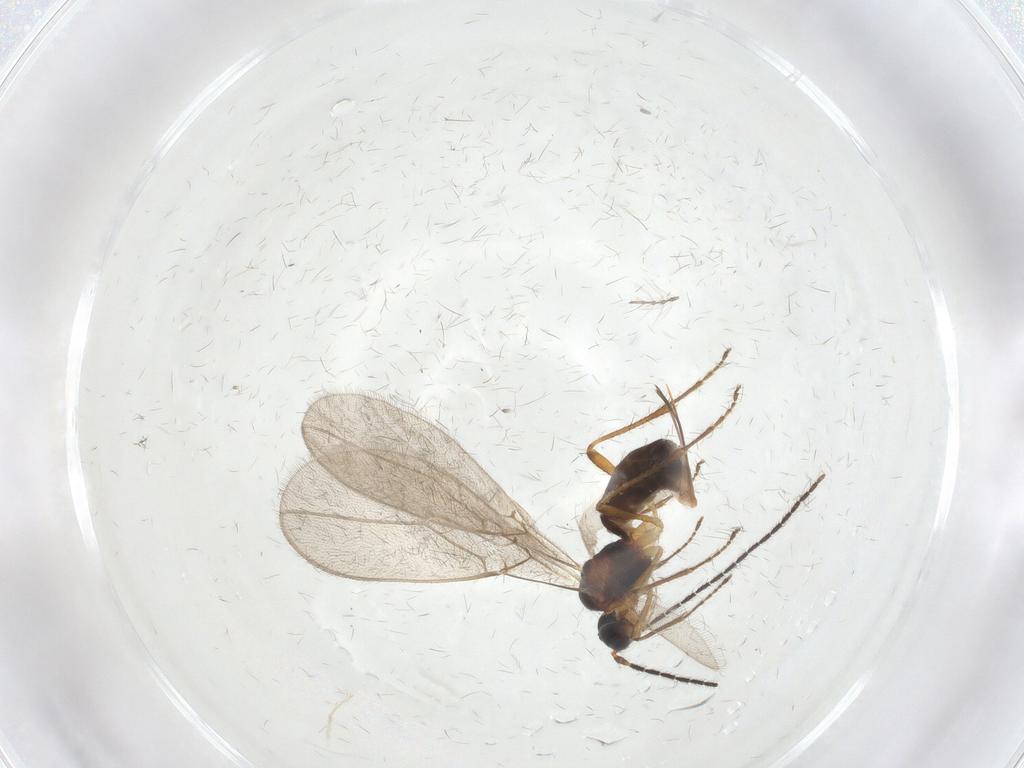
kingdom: Animalia
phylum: Arthropoda
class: Insecta
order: Hymenoptera
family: Braconidae
